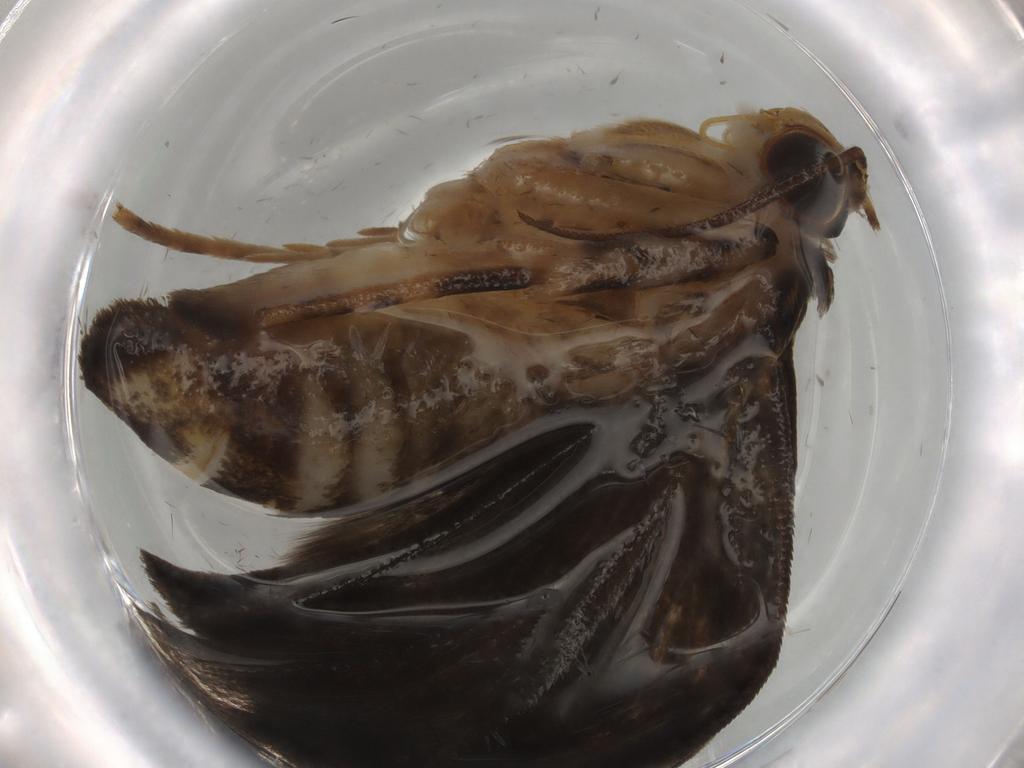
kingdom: Animalia
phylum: Arthropoda
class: Insecta
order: Lepidoptera
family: Immidae
